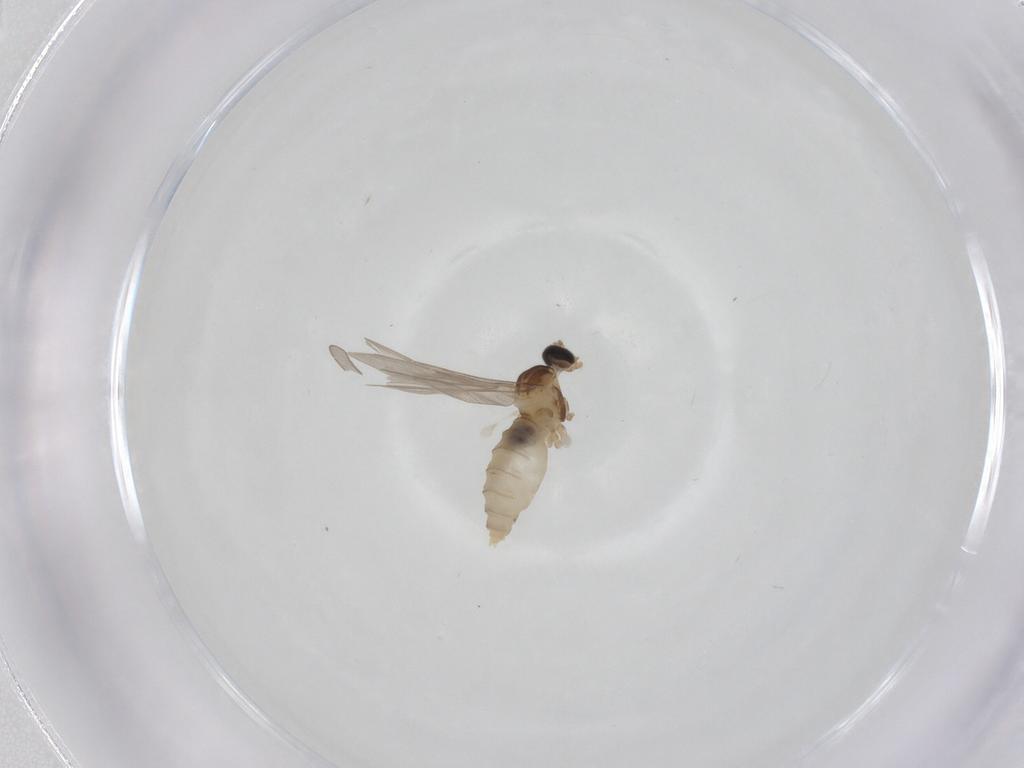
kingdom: Animalia
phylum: Arthropoda
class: Insecta
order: Diptera
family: Cecidomyiidae
